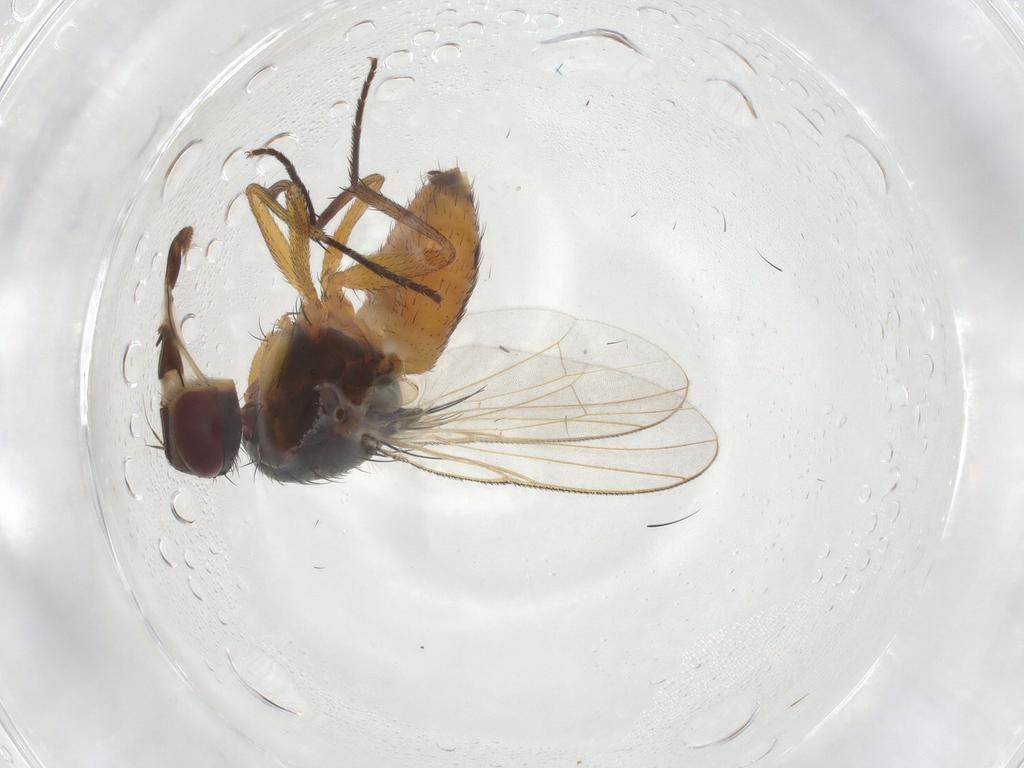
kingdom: Animalia
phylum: Arthropoda
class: Insecta
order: Diptera
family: Muscidae
